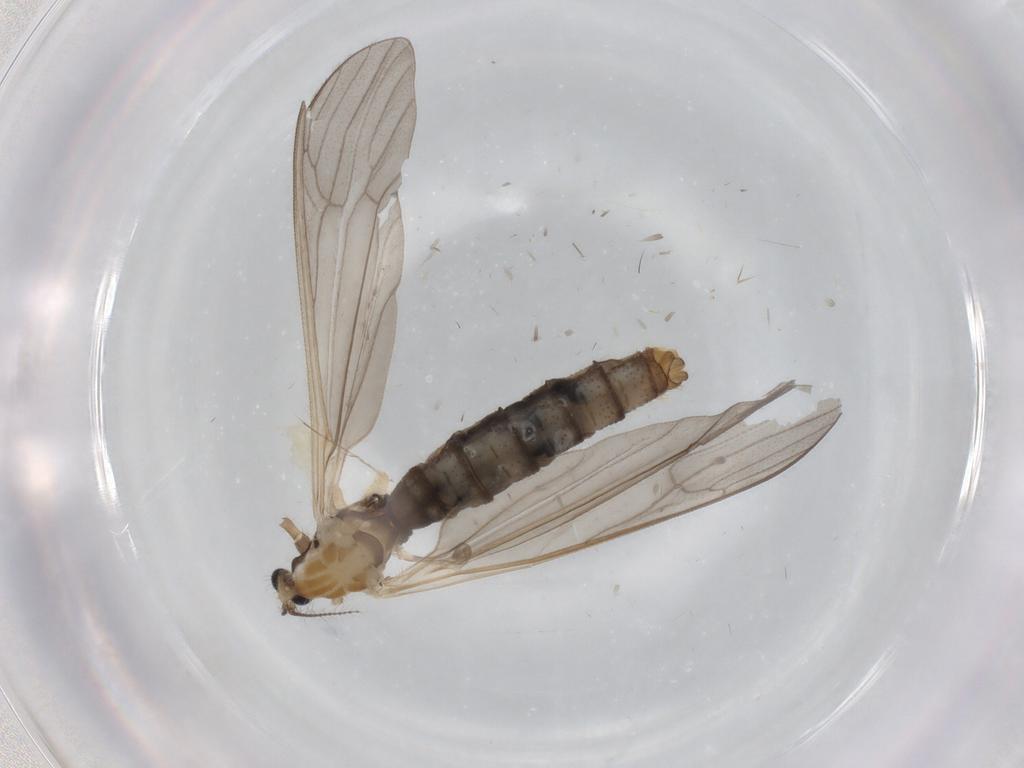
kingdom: Animalia
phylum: Arthropoda
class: Insecta
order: Diptera
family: Limoniidae
